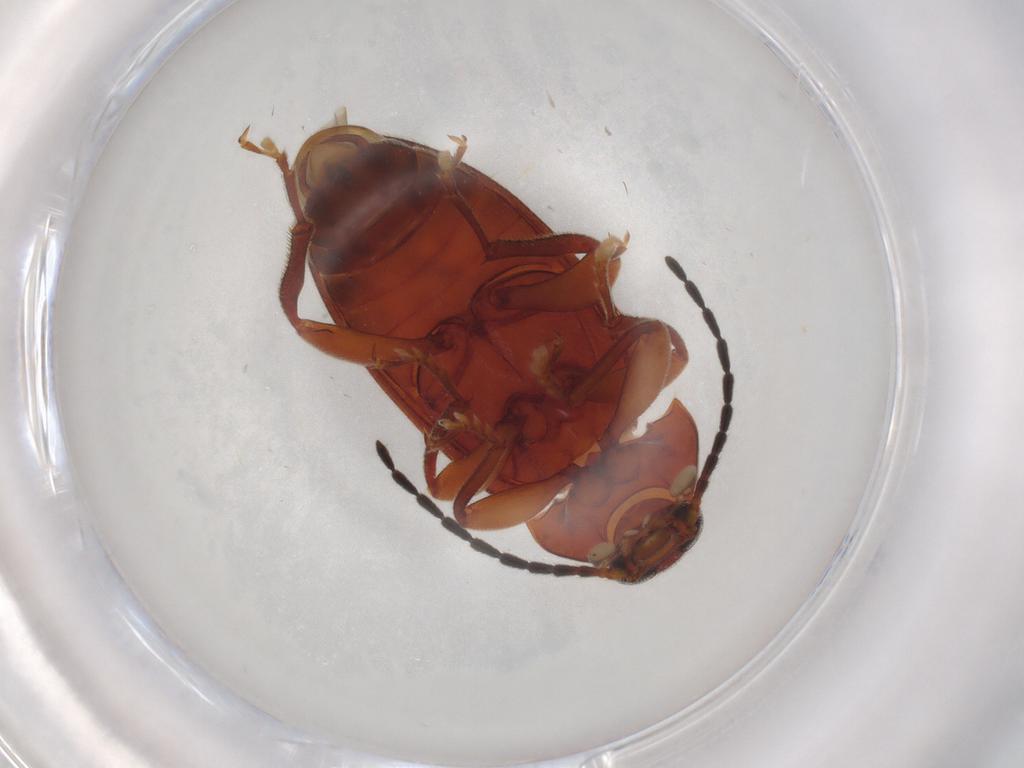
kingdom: Animalia
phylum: Arthropoda
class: Insecta
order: Coleoptera
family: Carabidae
